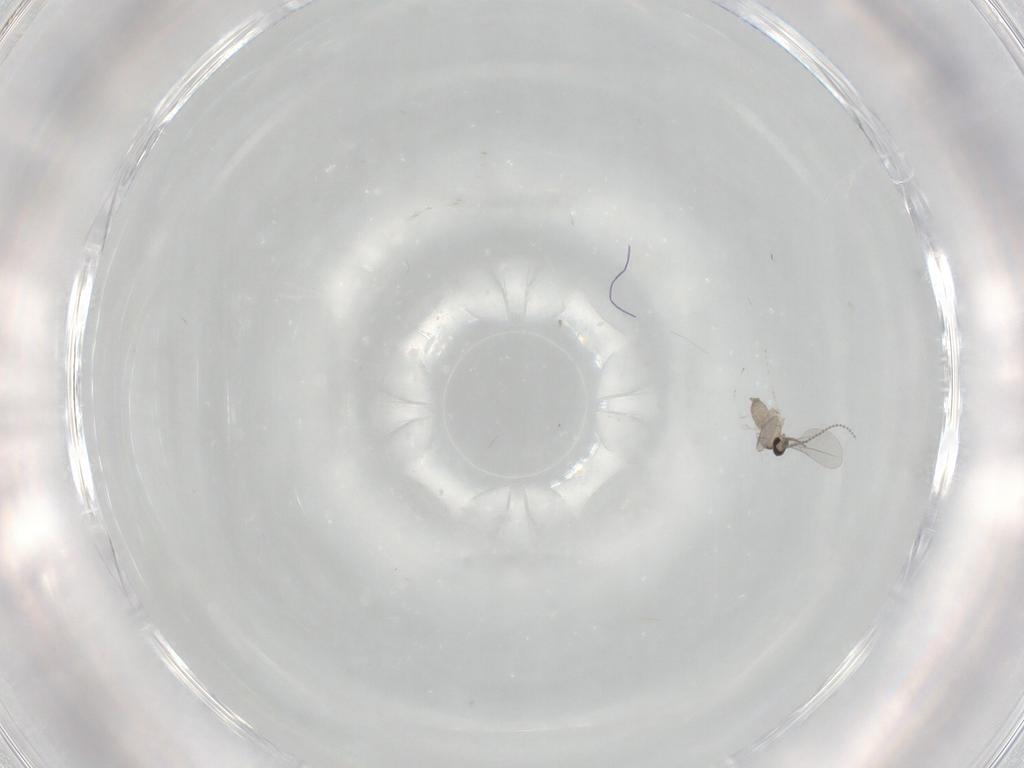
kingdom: Animalia
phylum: Arthropoda
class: Insecta
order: Diptera
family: Cecidomyiidae
